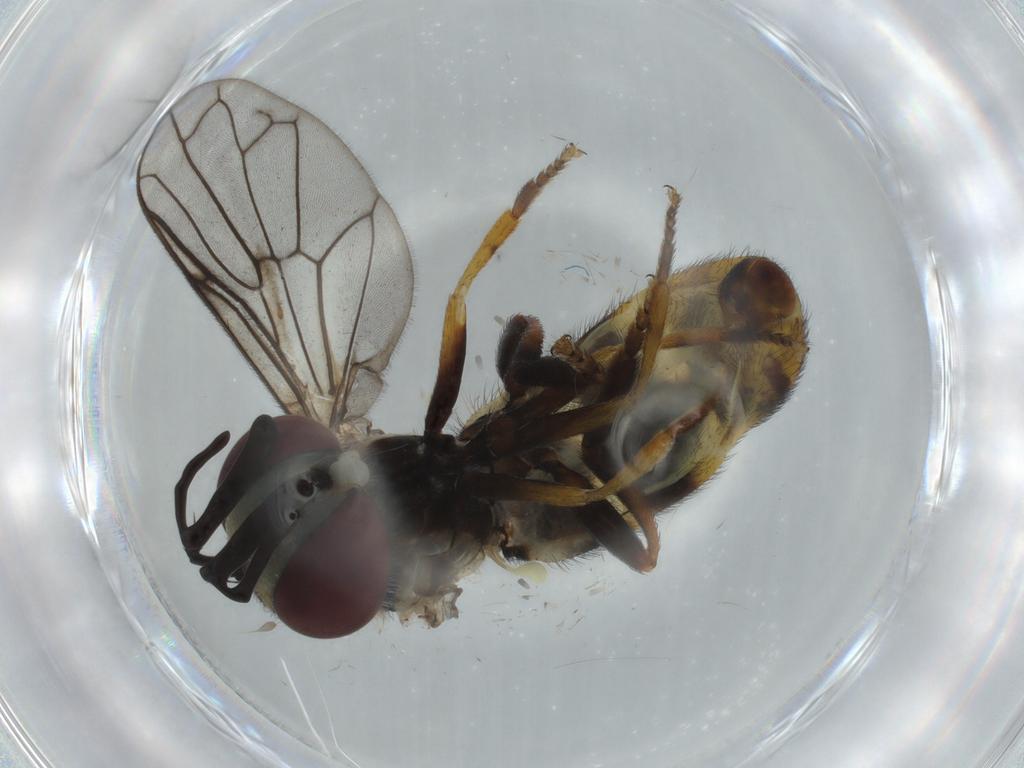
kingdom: Animalia
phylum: Arthropoda
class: Insecta
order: Diptera
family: Syrphidae
